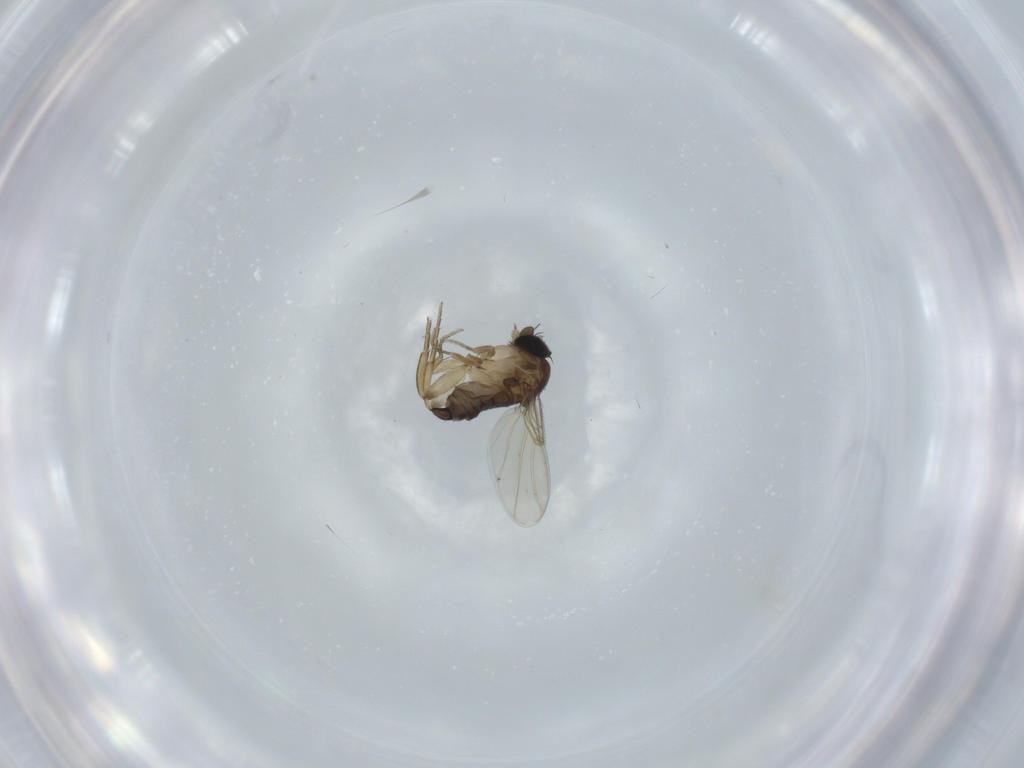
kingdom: Animalia
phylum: Arthropoda
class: Insecta
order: Diptera
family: Phoridae
